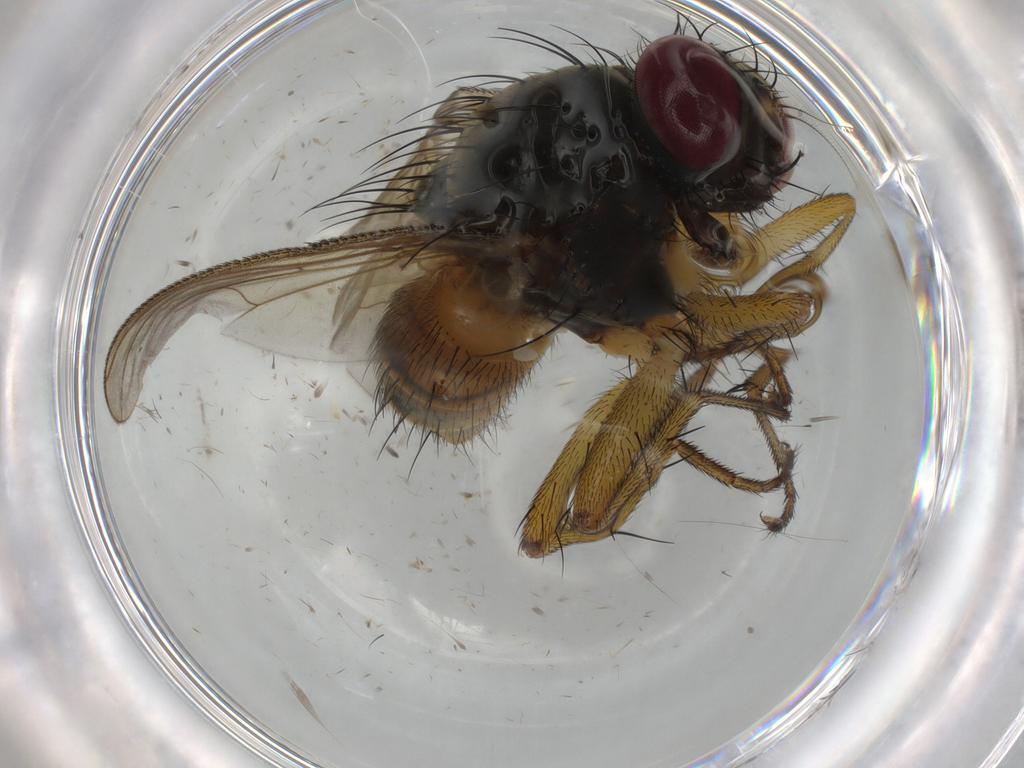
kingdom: Animalia
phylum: Arthropoda
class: Insecta
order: Diptera
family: Muscidae
